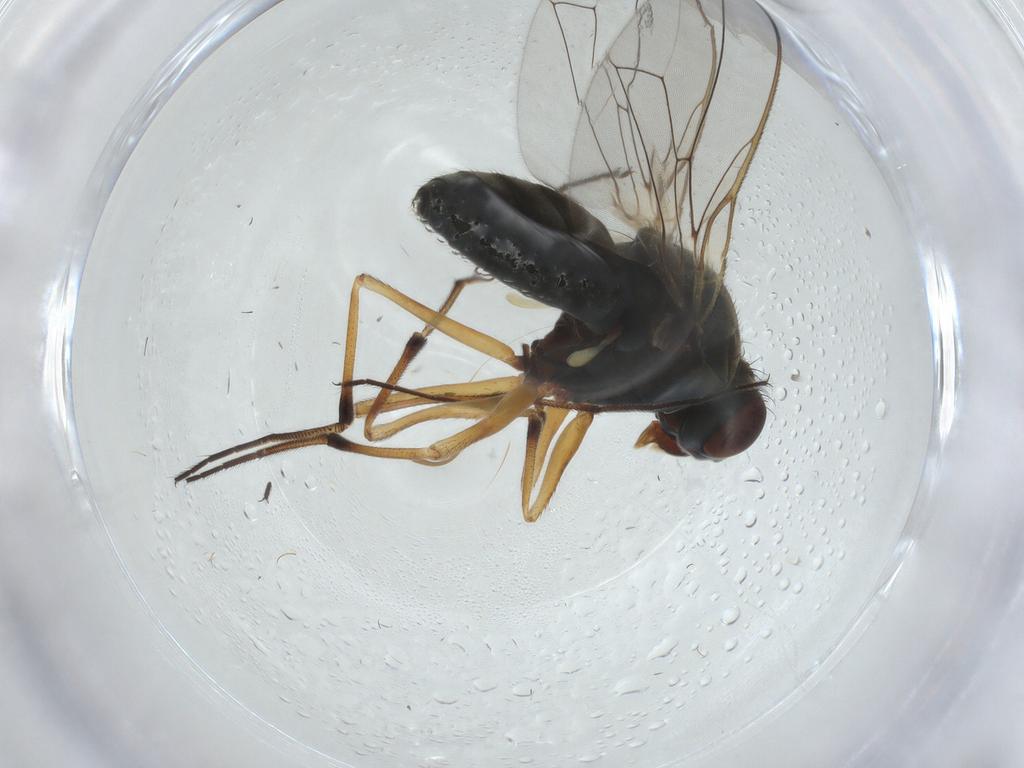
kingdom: Animalia
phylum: Arthropoda
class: Insecta
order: Diptera
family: Ephydridae
